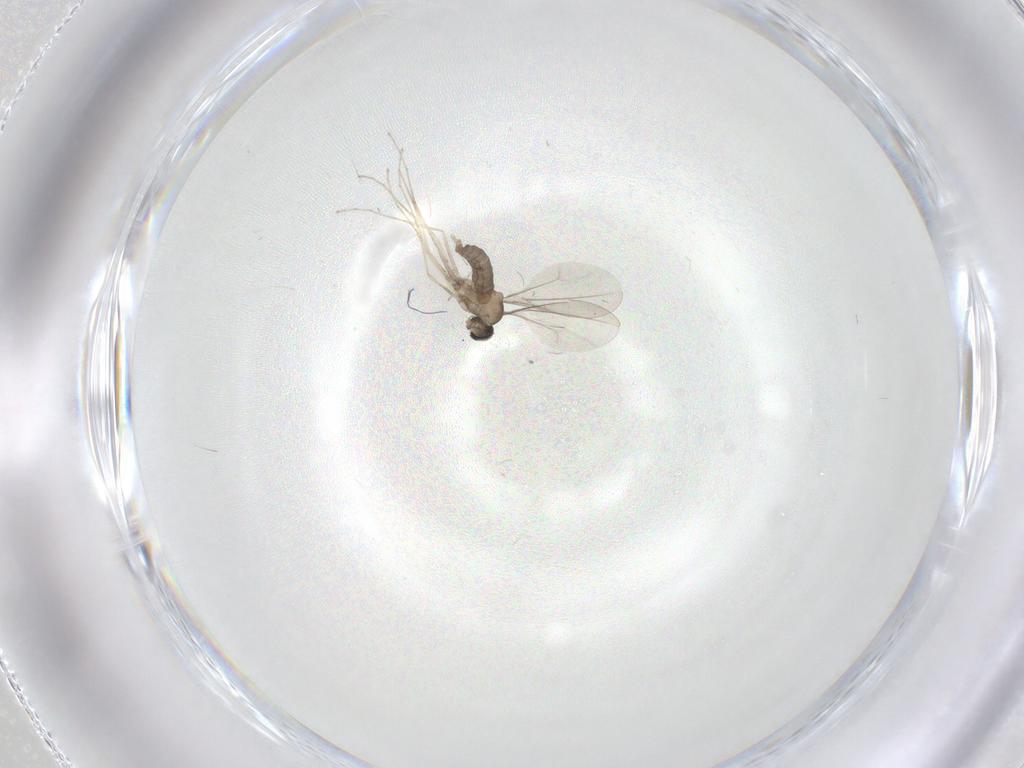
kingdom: Animalia
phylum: Arthropoda
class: Insecta
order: Diptera
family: Cecidomyiidae
